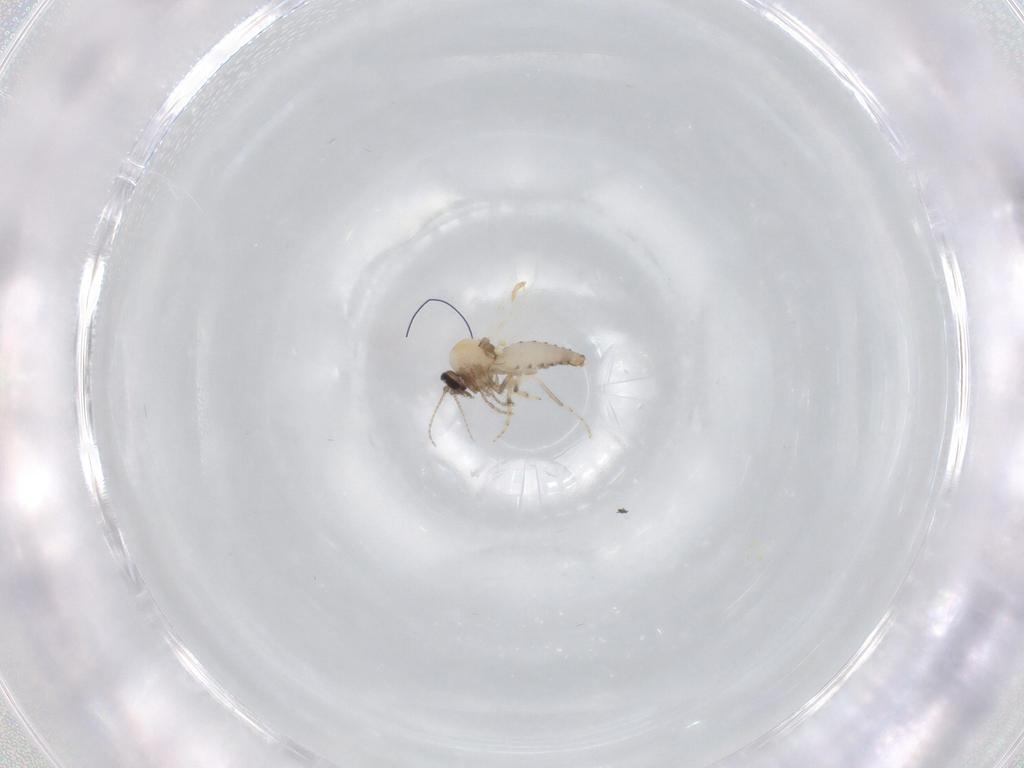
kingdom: Animalia
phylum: Arthropoda
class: Insecta
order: Diptera
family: Ceratopogonidae
